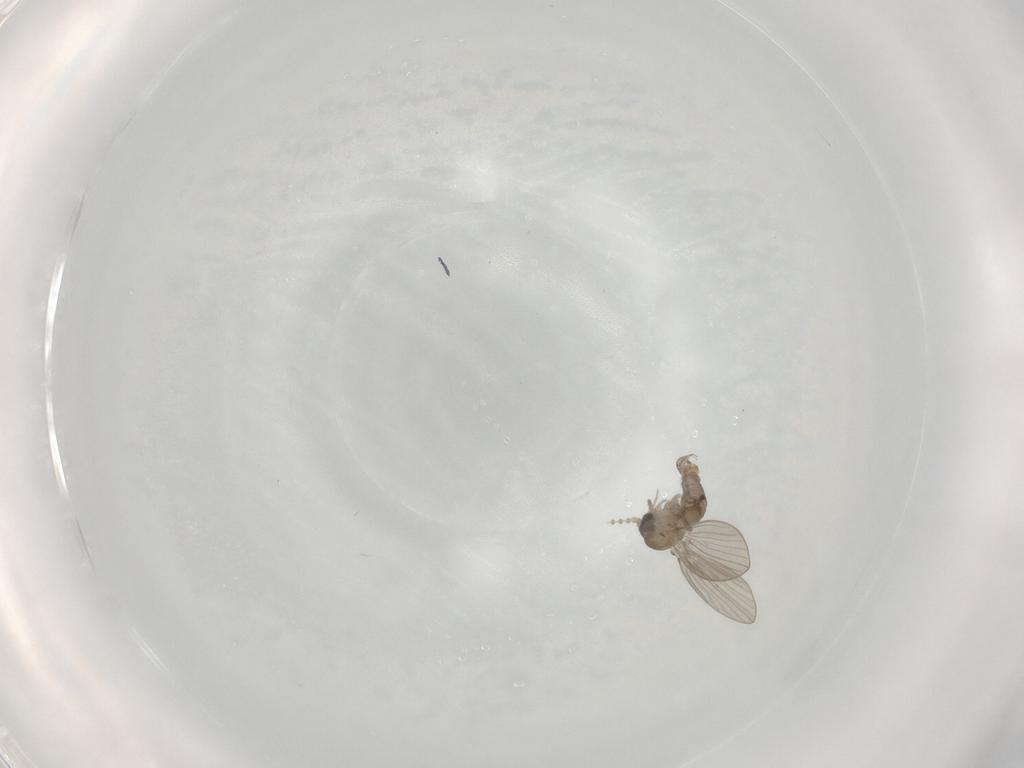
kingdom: Animalia
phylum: Arthropoda
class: Insecta
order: Diptera
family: Psychodidae
